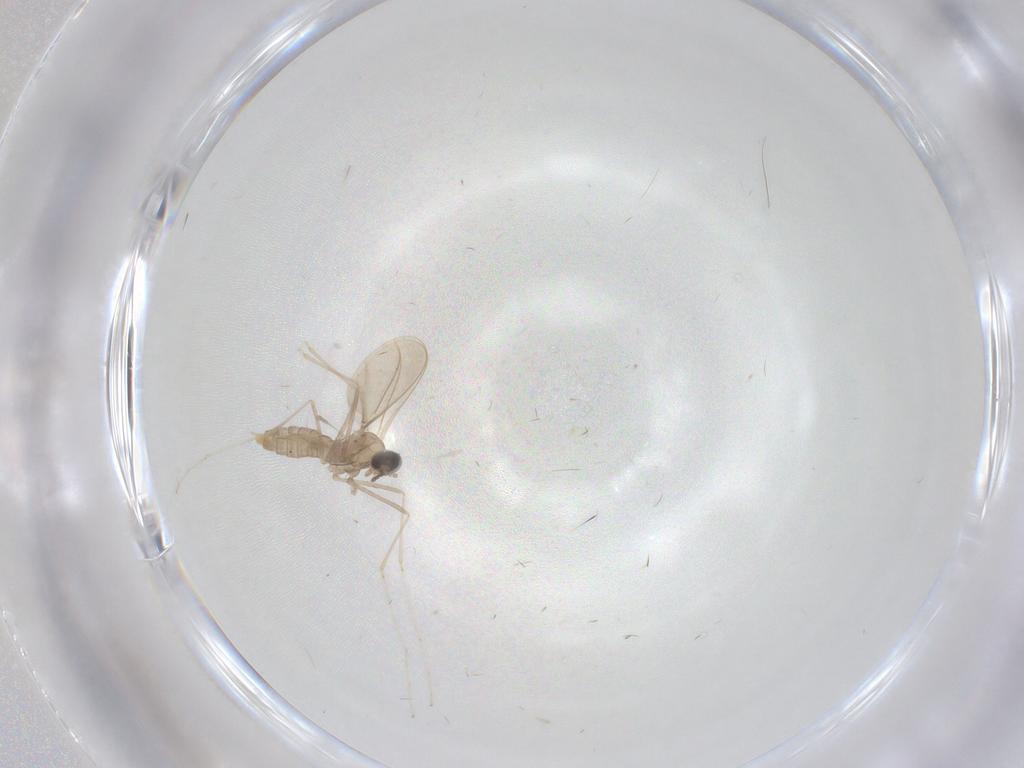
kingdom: Animalia
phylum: Arthropoda
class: Insecta
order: Diptera
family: Cecidomyiidae
